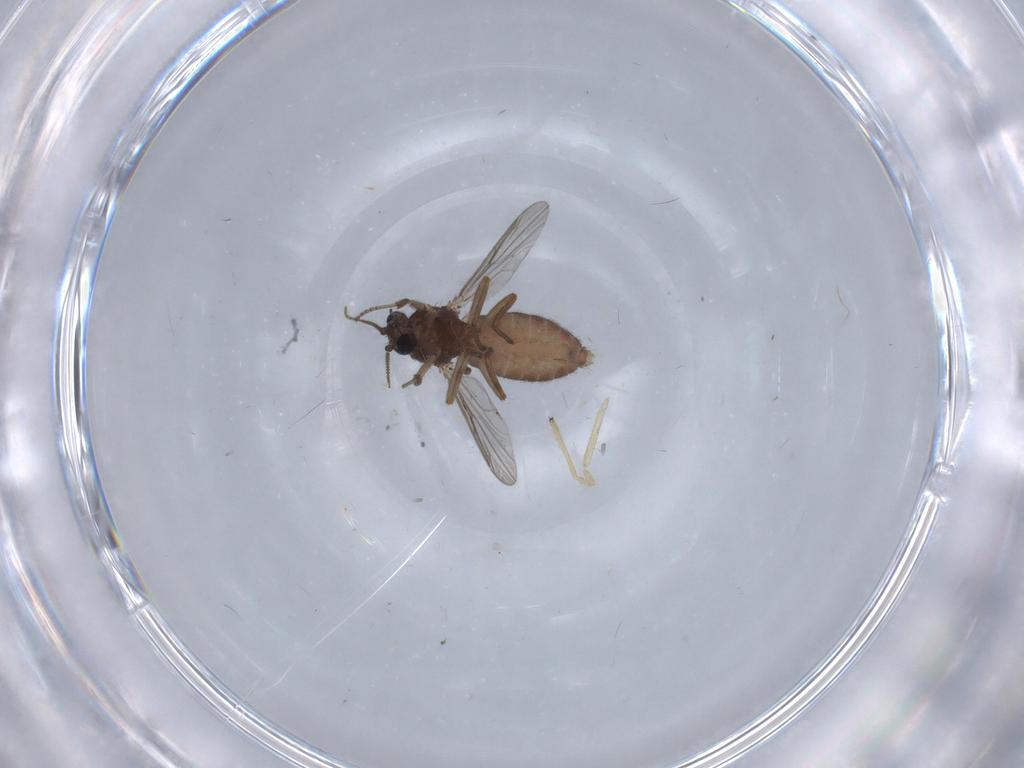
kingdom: Animalia
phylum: Arthropoda
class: Insecta
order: Diptera
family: Ceratopogonidae
